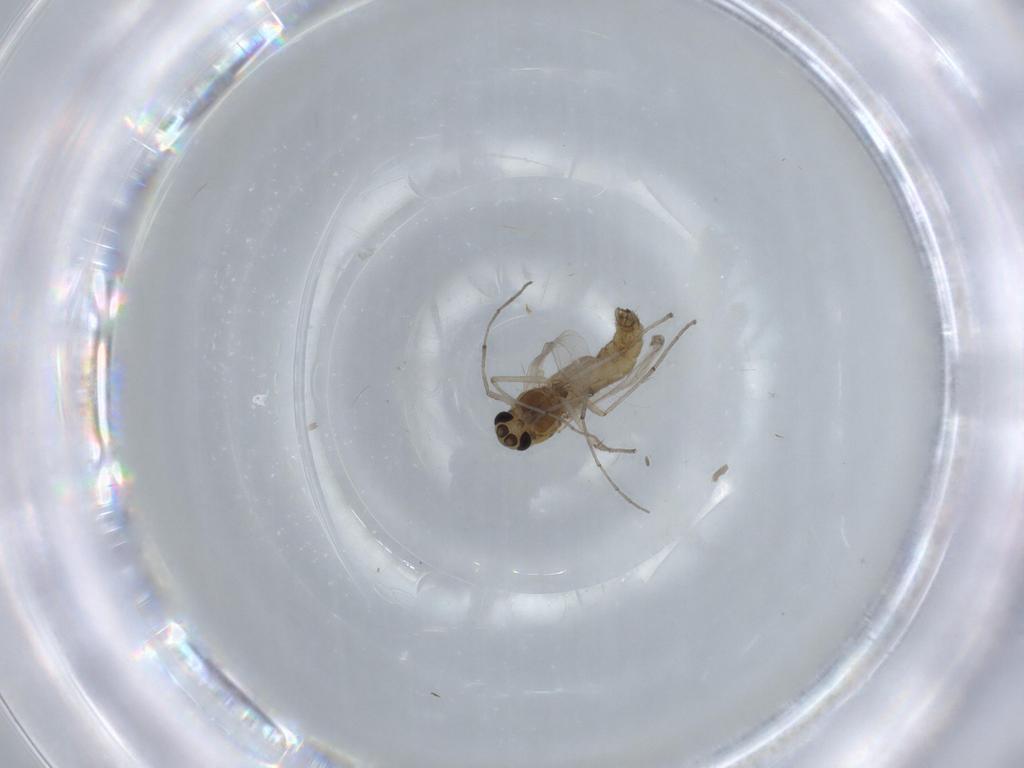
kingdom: Animalia
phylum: Arthropoda
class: Insecta
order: Diptera
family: Chironomidae
